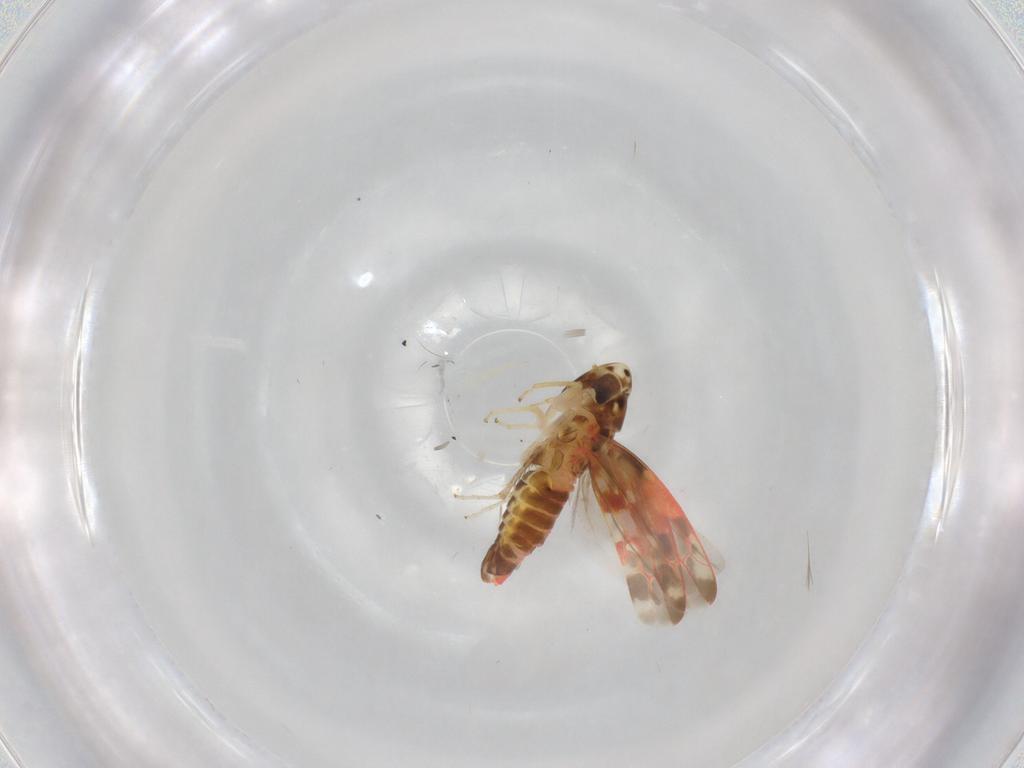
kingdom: Animalia
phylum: Arthropoda
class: Insecta
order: Hemiptera
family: Cicadellidae
